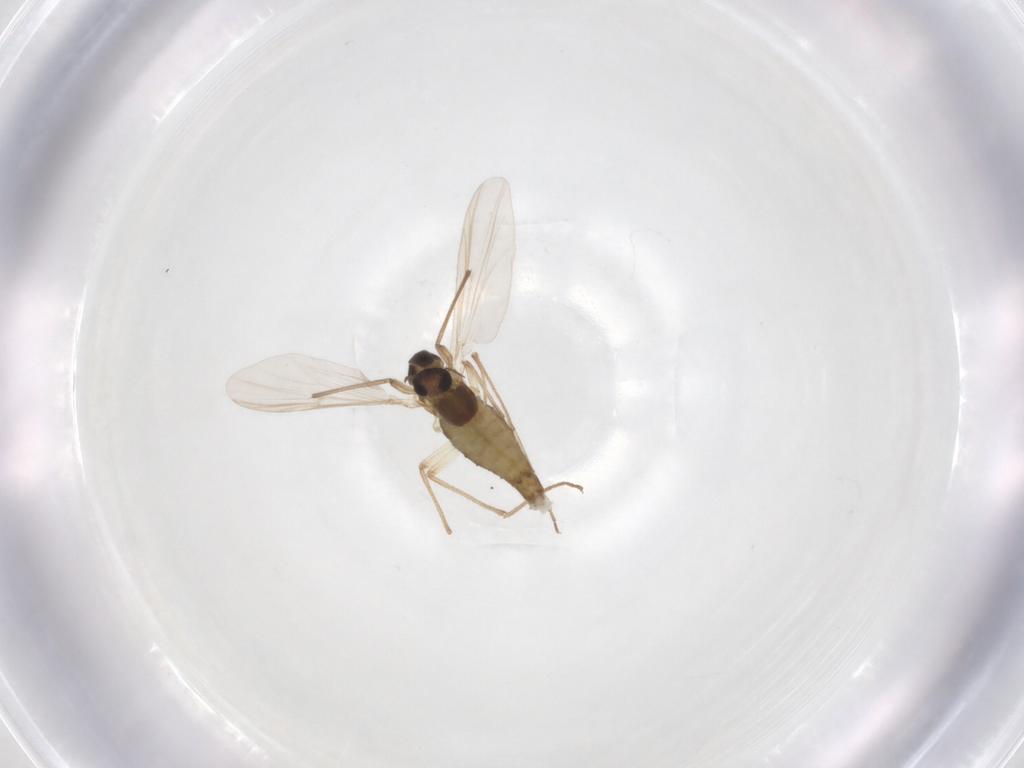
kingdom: Animalia
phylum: Arthropoda
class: Insecta
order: Diptera
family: Chironomidae
